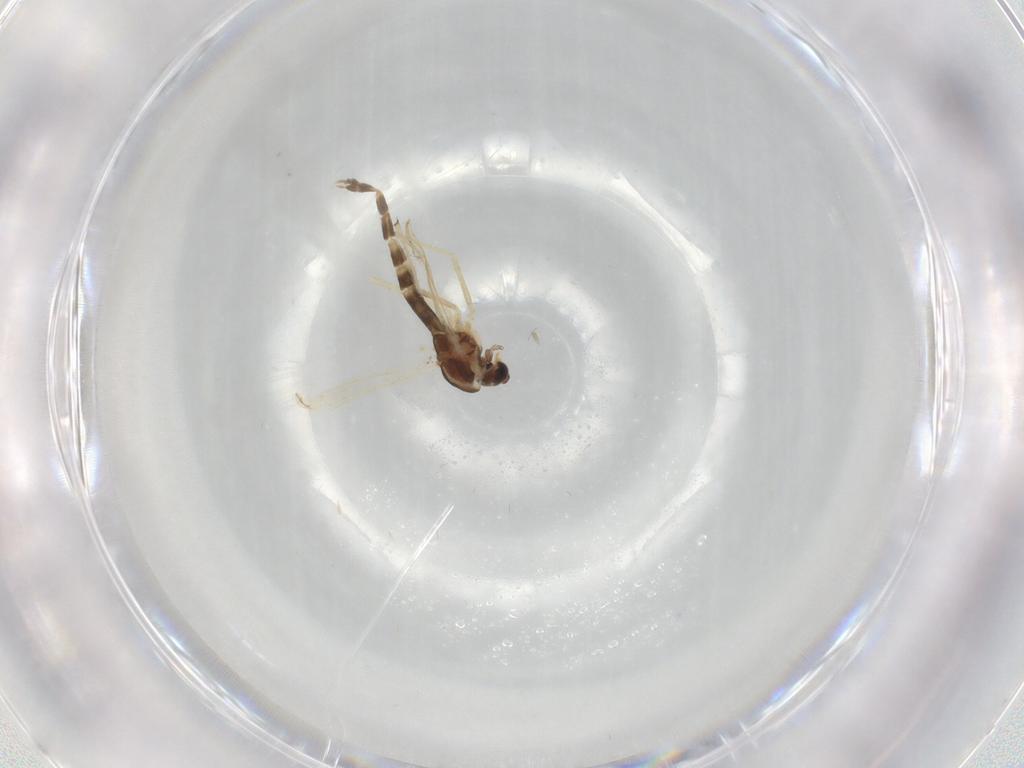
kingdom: Animalia
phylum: Arthropoda
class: Insecta
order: Diptera
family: Chironomidae
